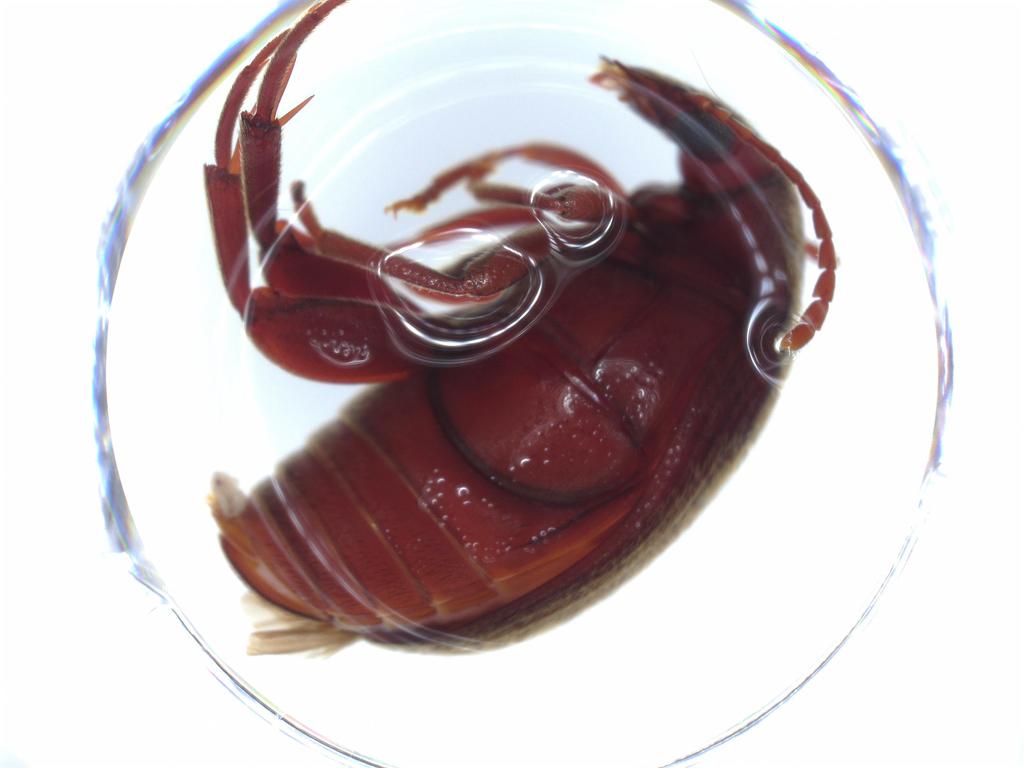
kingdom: Animalia
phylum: Arthropoda
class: Insecta
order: Coleoptera
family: Chrysomelidae
